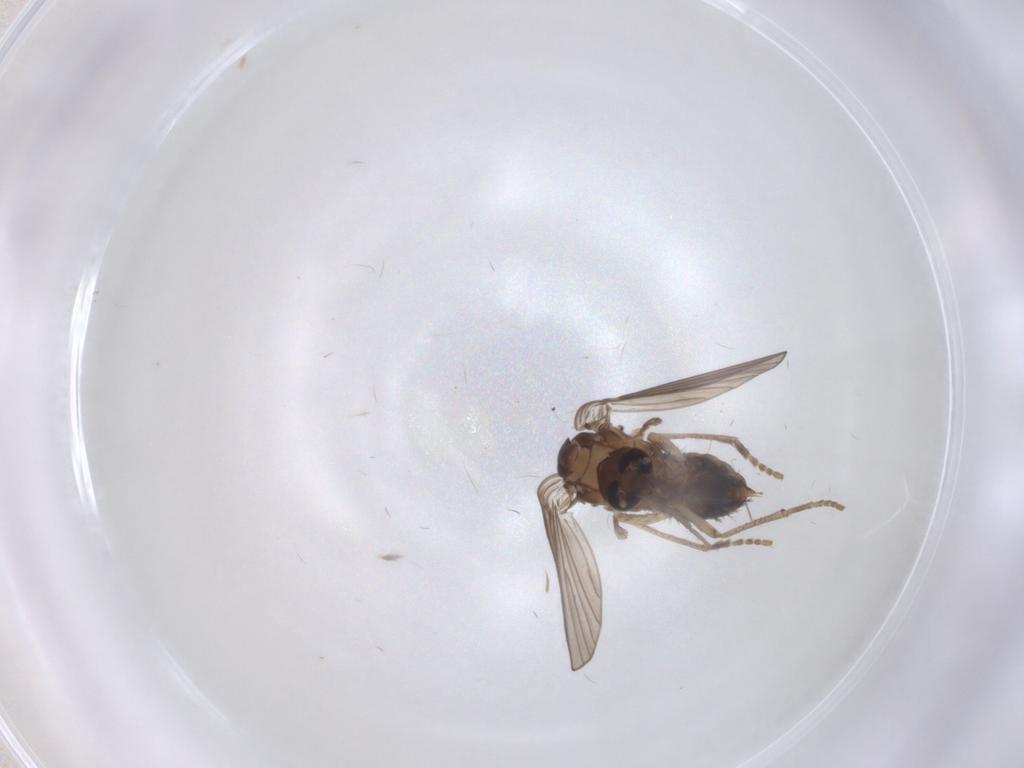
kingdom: Animalia
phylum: Arthropoda
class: Insecta
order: Diptera
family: Psychodidae
